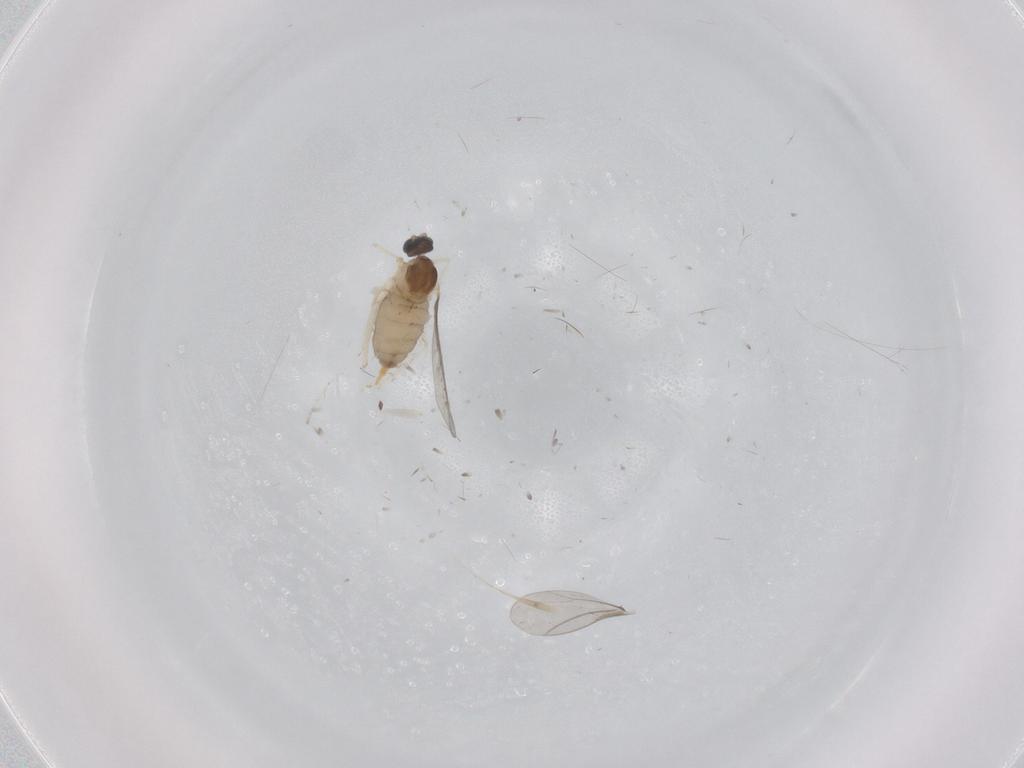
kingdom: Animalia
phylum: Arthropoda
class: Insecta
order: Diptera
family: Cecidomyiidae
